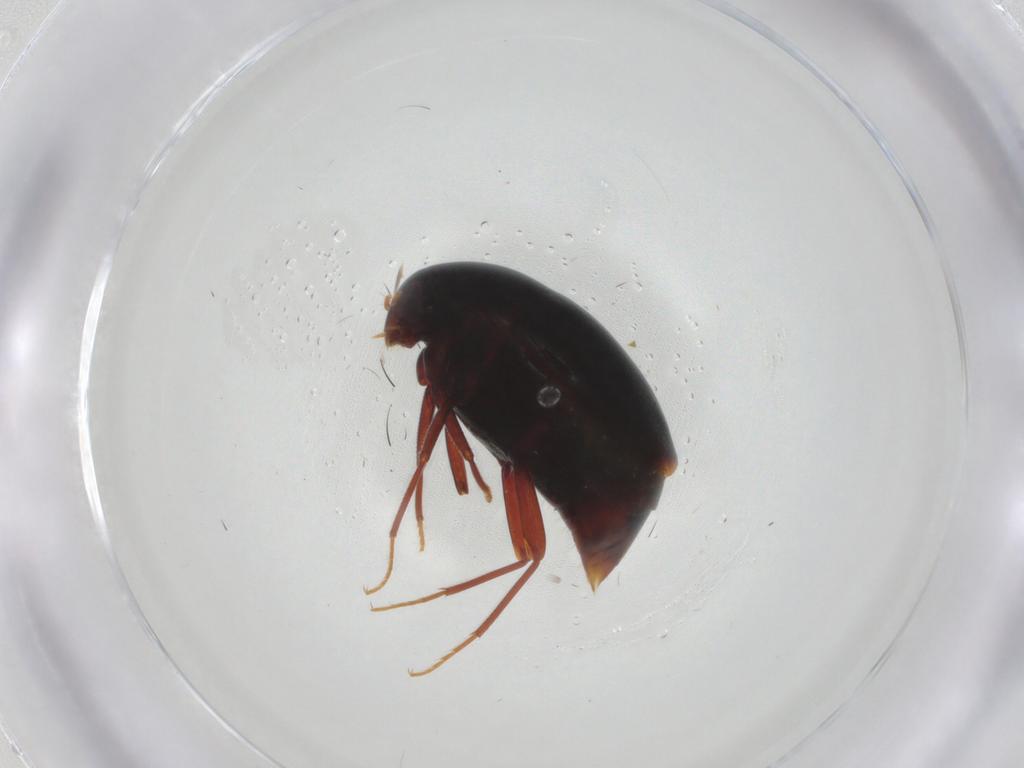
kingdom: Animalia
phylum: Arthropoda
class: Insecta
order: Coleoptera
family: Staphylinidae
